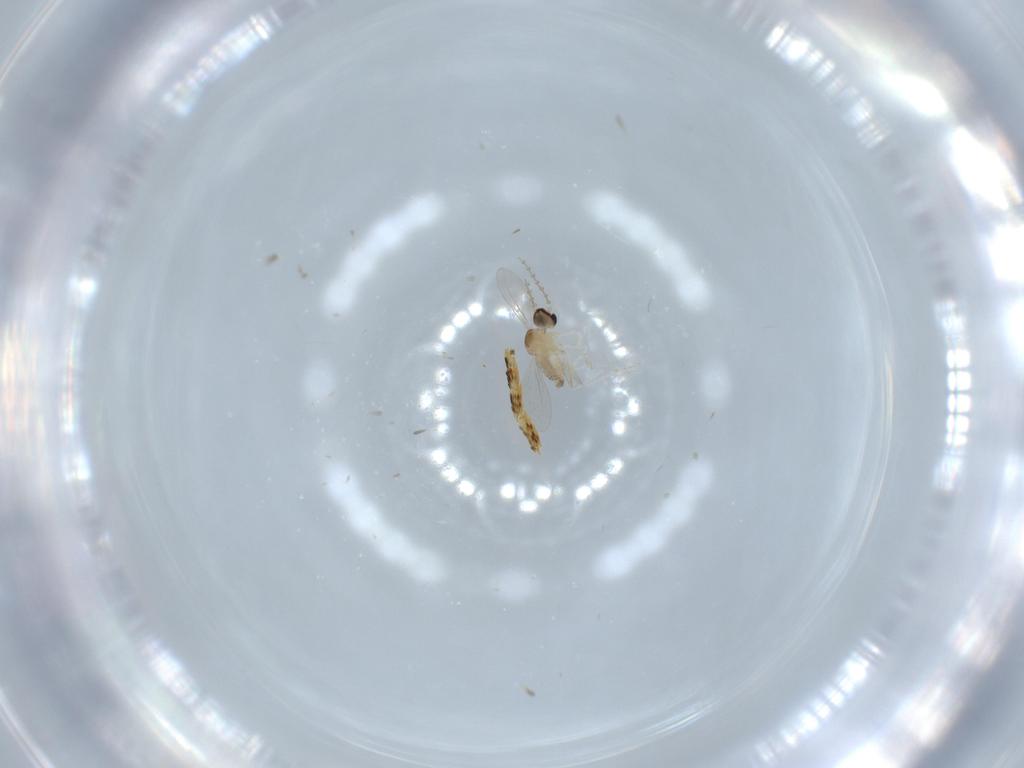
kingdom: Animalia
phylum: Arthropoda
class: Insecta
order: Diptera
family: Cecidomyiidae
